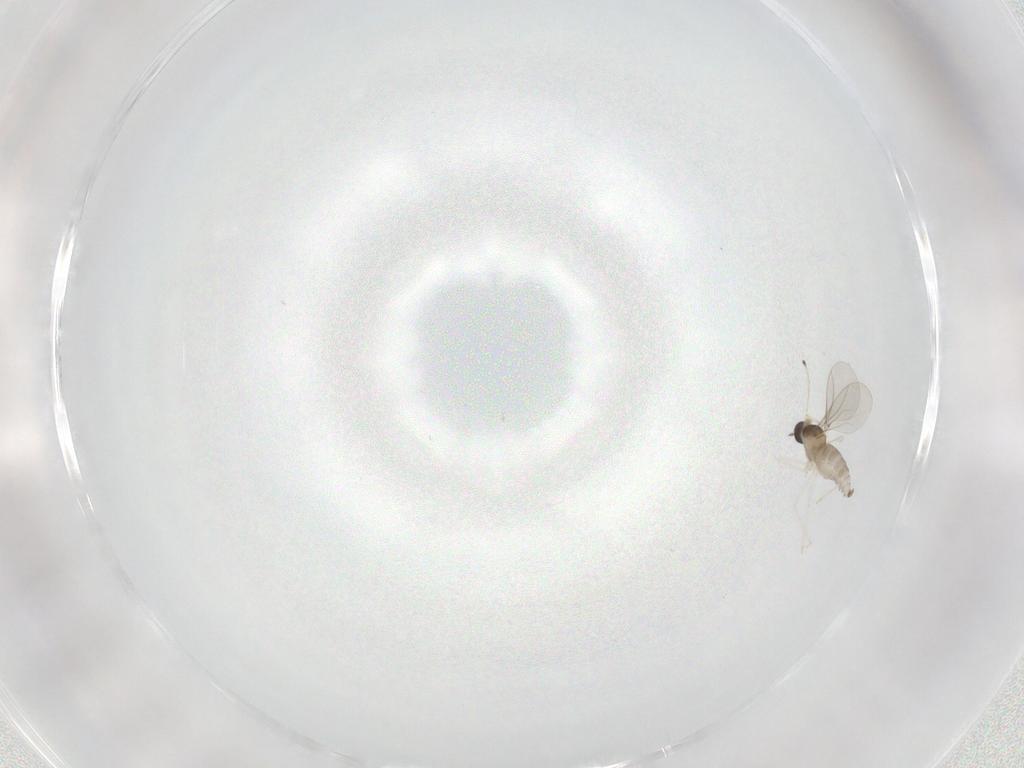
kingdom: Animalia
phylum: Arthropoda
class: Insecta
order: Diptera
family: Cecidomyiidae
